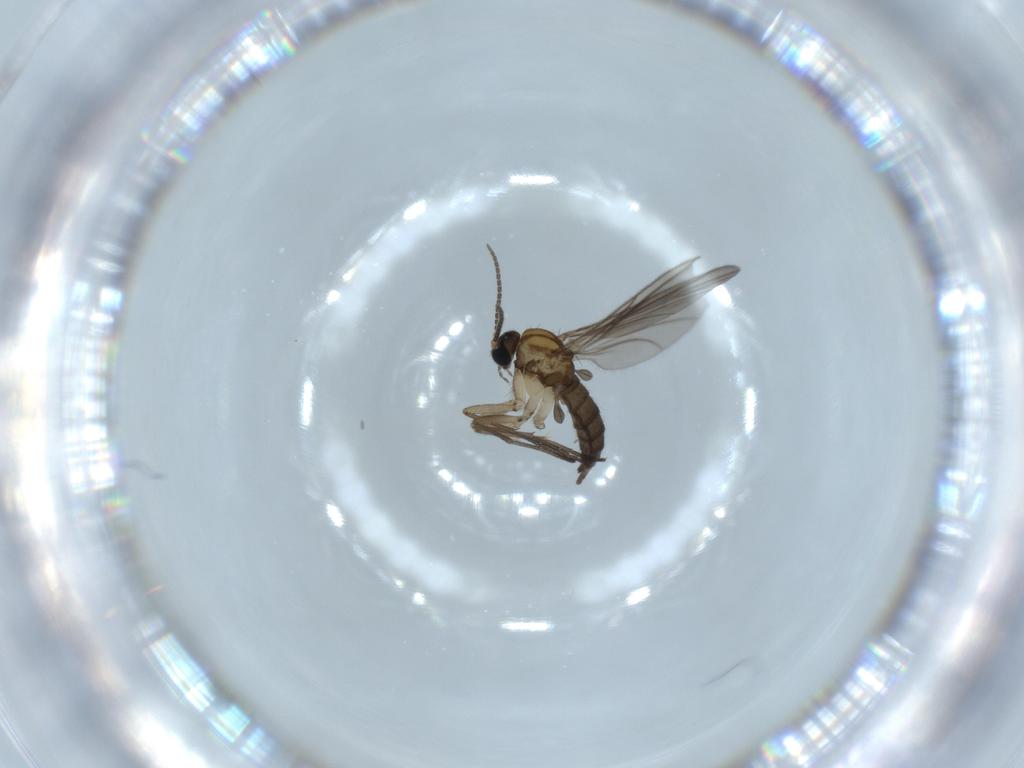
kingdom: Animalia
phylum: Arthropoda
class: Insecta
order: Diptera
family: Sciaridae
